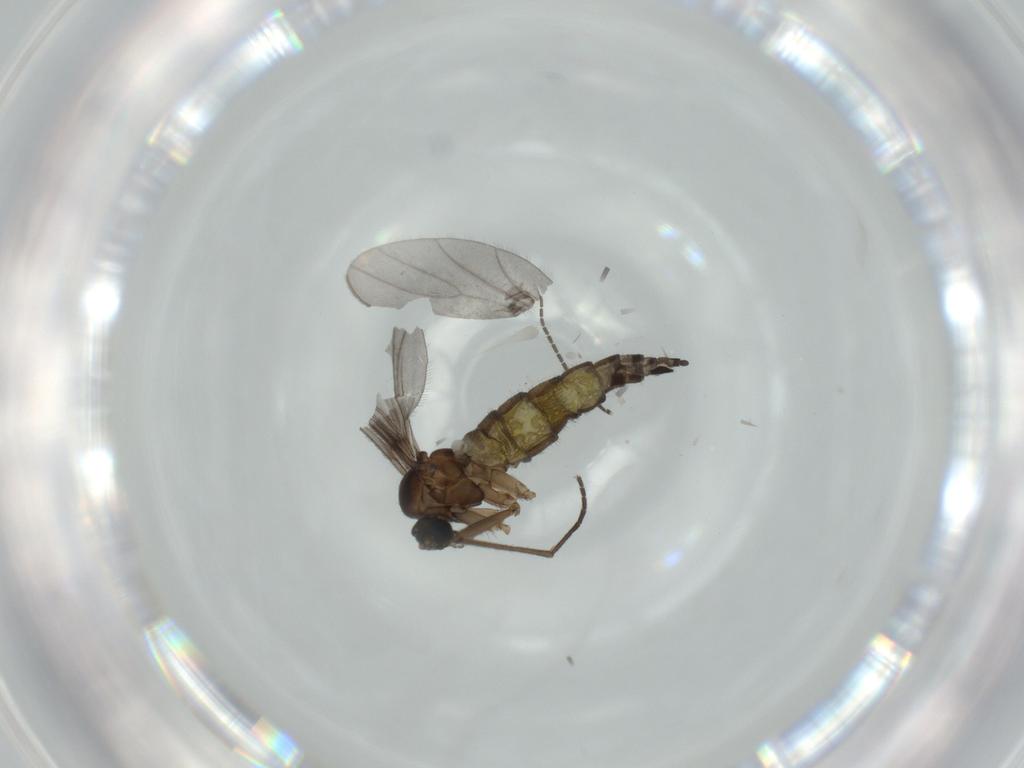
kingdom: Animalia
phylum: Arthropoda
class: Insecta
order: Diptera
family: Sciaridae
